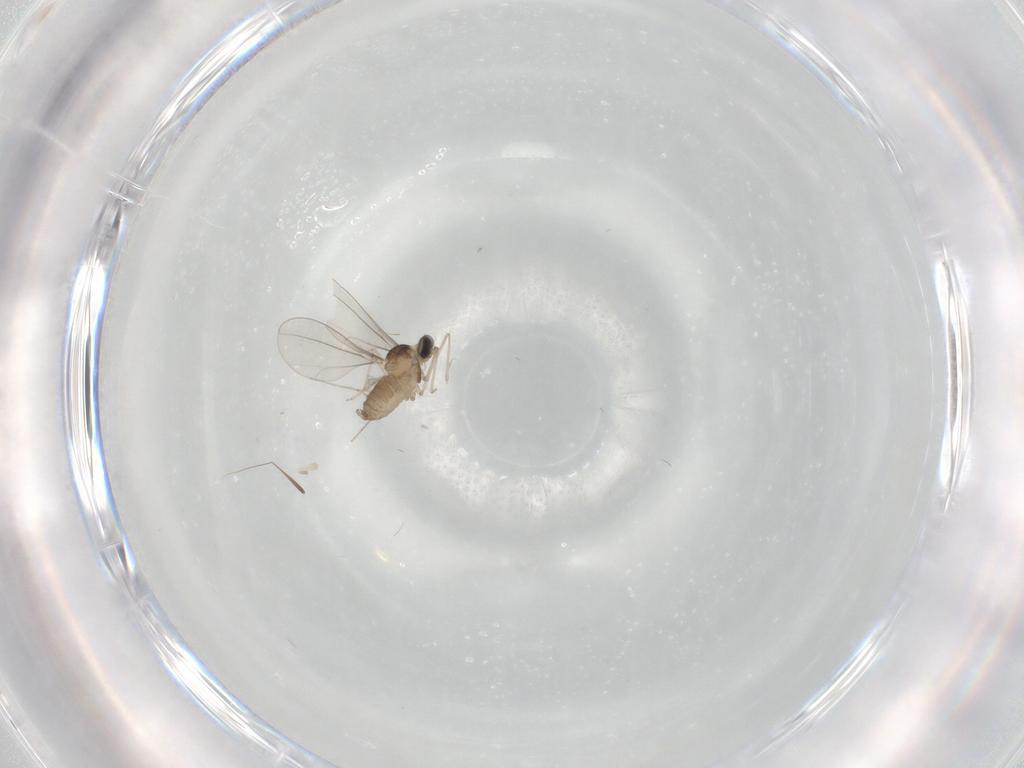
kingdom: Animalia
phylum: Arthropoda
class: Insecta
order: Diptera
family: Cecidomyiidae
